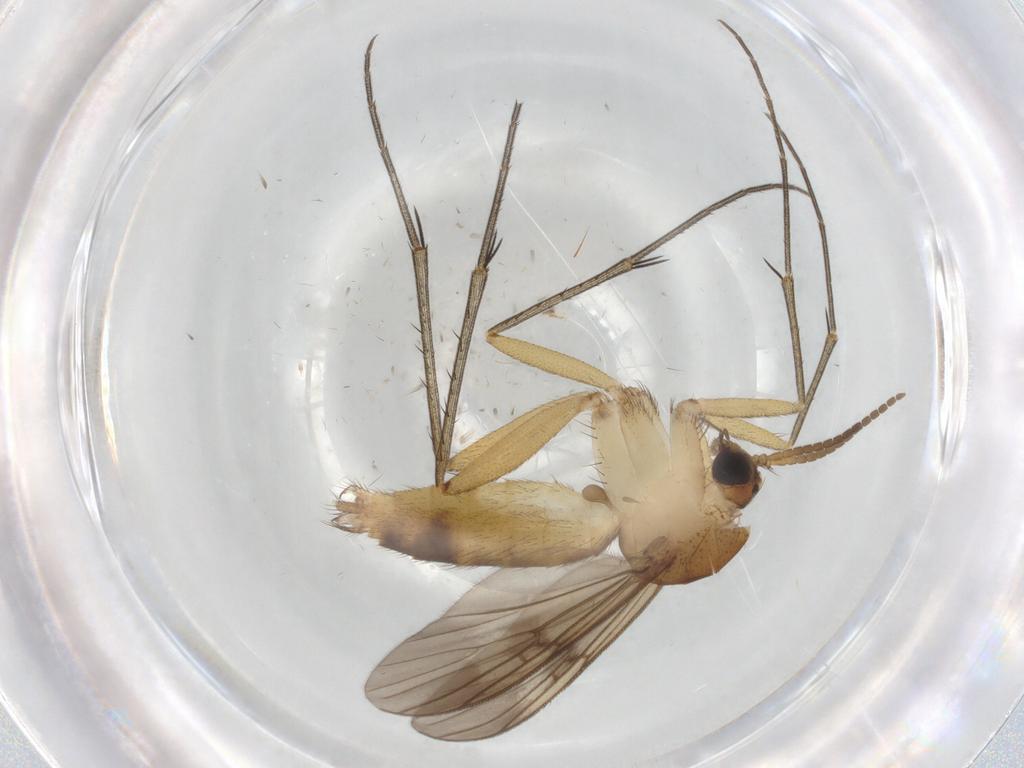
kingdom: Animalia
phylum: Arthropoda
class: Insecta
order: Diptera
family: Mycetophilidae
